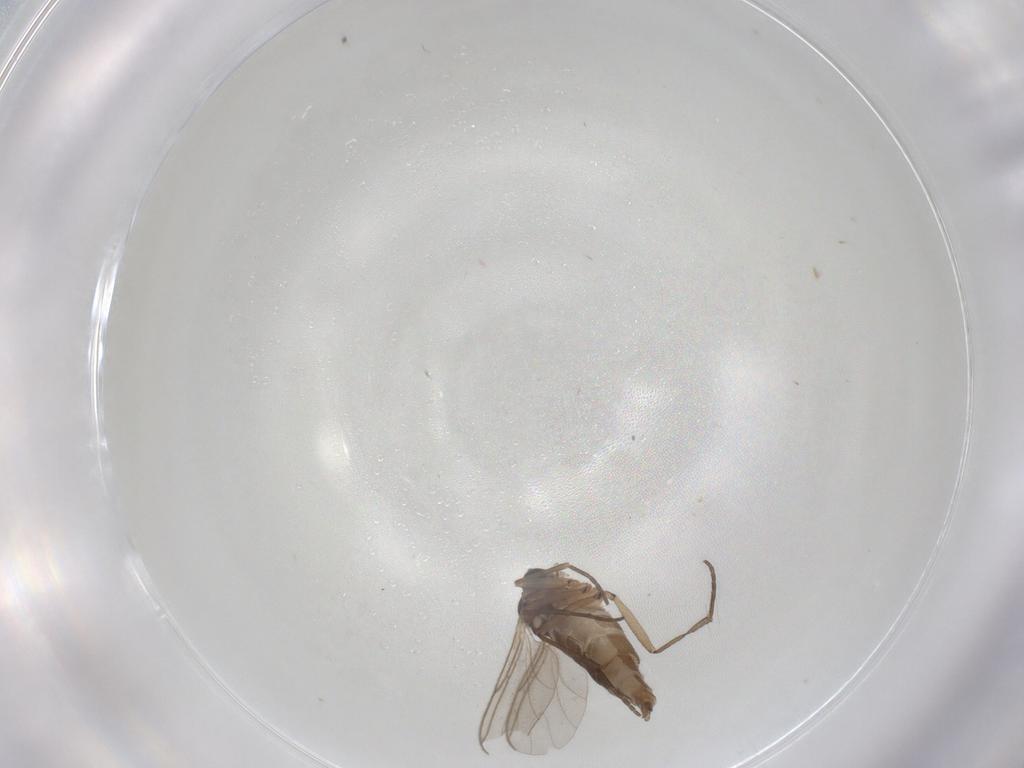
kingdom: Animalia
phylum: Arthropoda
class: Insecta
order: Diptera
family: Sciaridae
